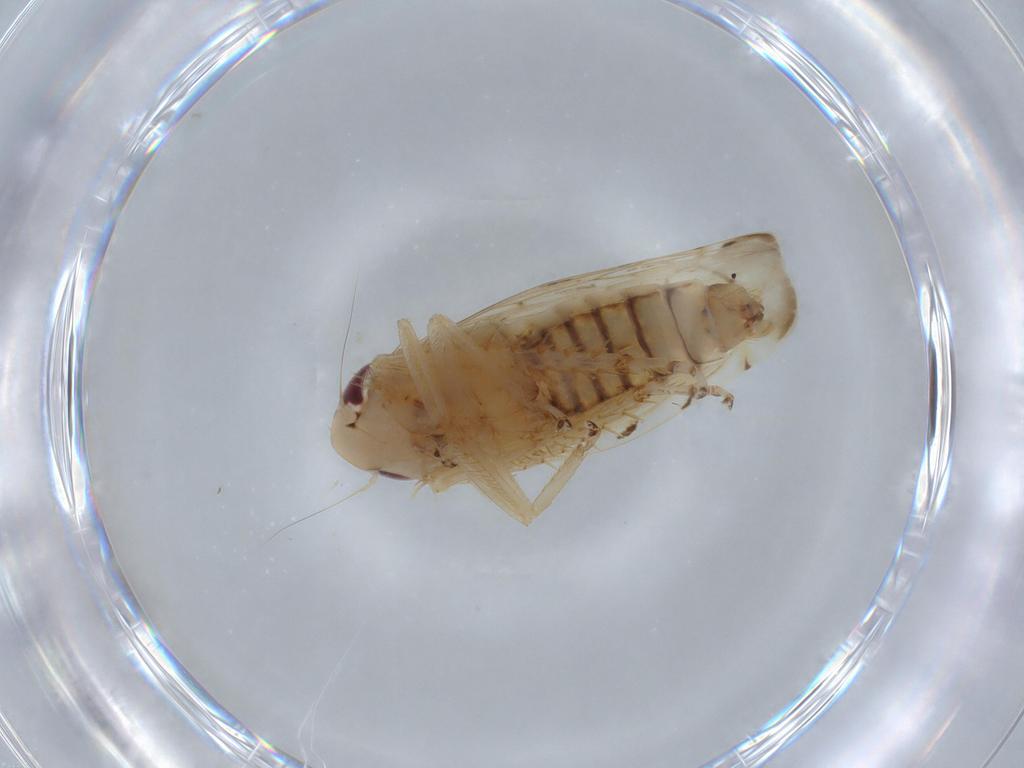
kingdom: Animalia
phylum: Arthropoda
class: Insecta
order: Hemiptera
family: Cicadellidae
